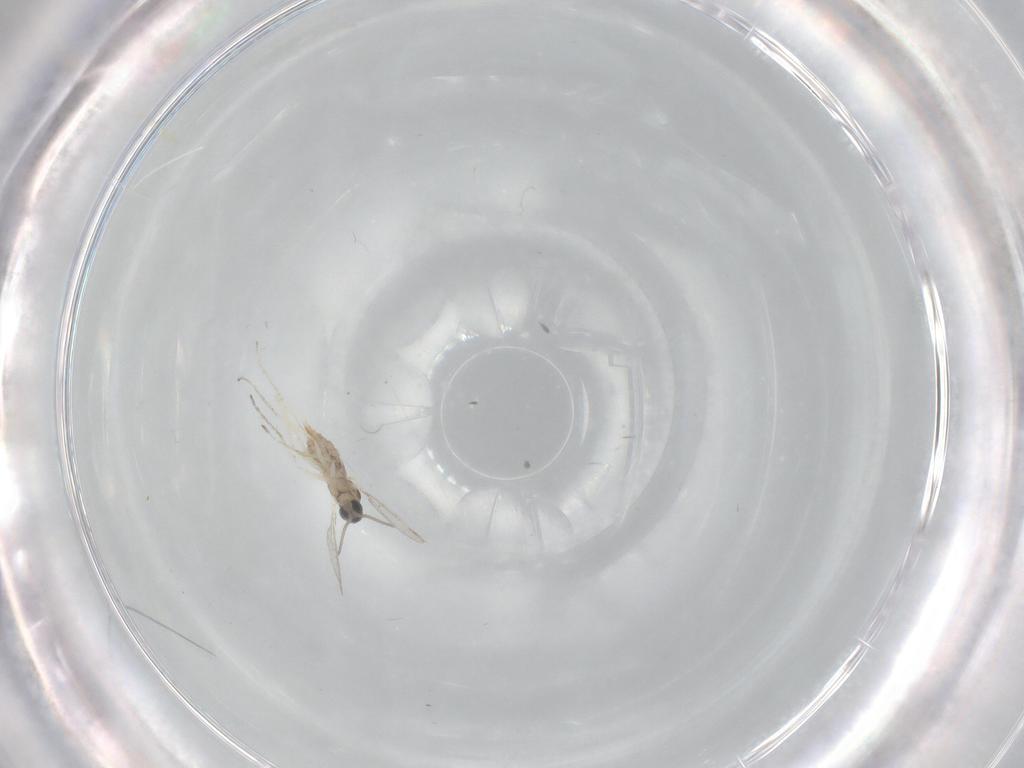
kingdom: Animalia
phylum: Arthropoda
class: Insecta
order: Diptera
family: Cecidomyiidae
